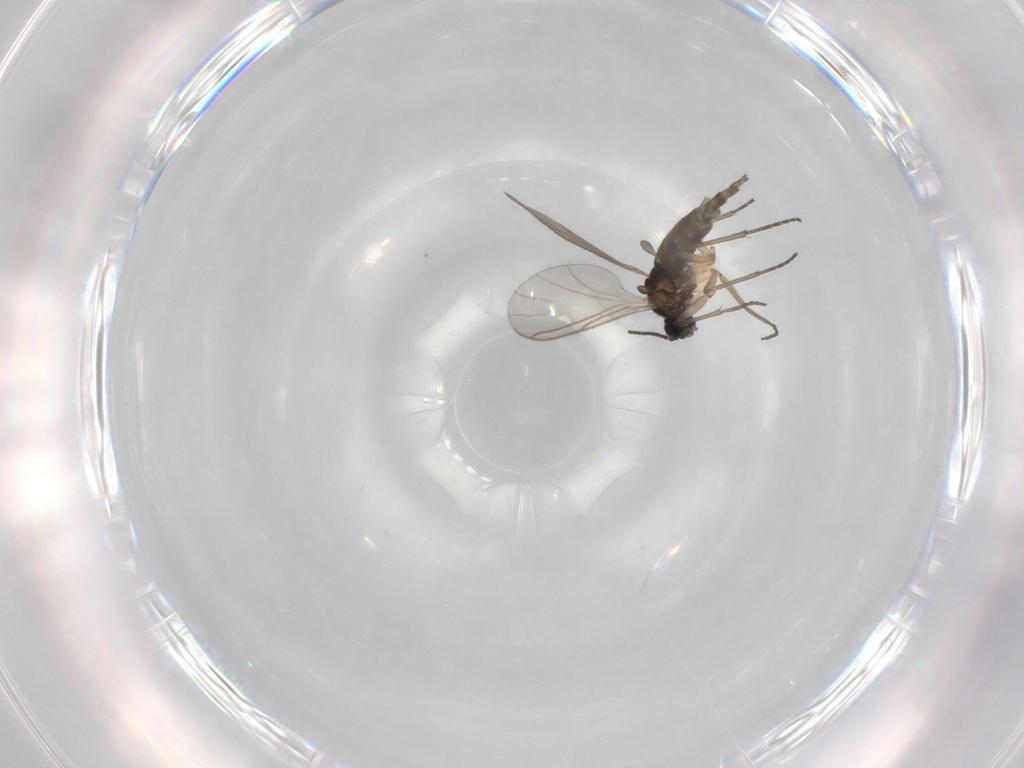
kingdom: Animalia
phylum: Arthropoda
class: Insecta
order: Diptera
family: Sciaridae
